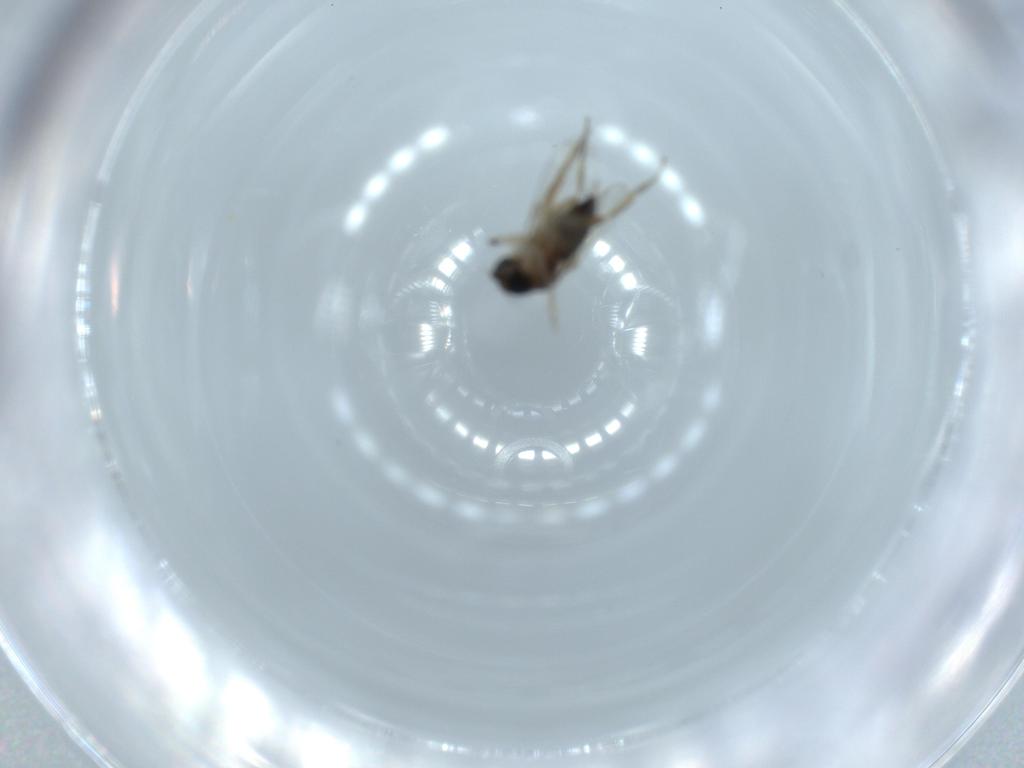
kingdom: Animalia
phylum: Arthropoda
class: Insecta
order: Diptera
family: Phoridae
